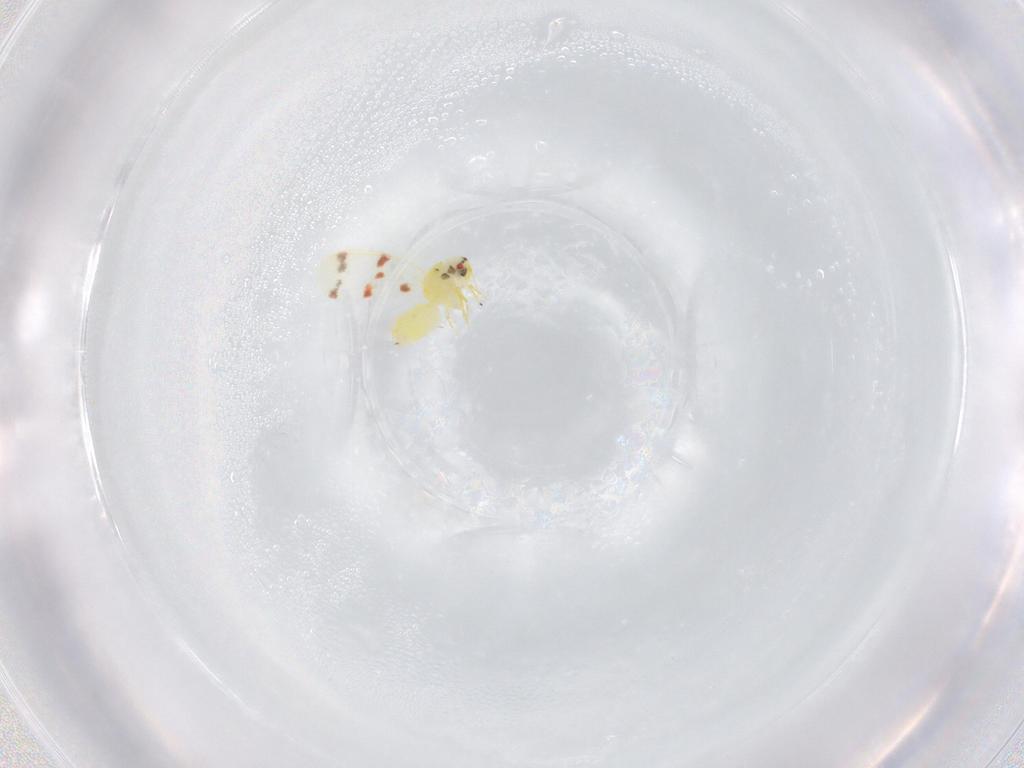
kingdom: Animalia
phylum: Arthropoda
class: Insecta
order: Hemiptera
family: Aleyrodidae
